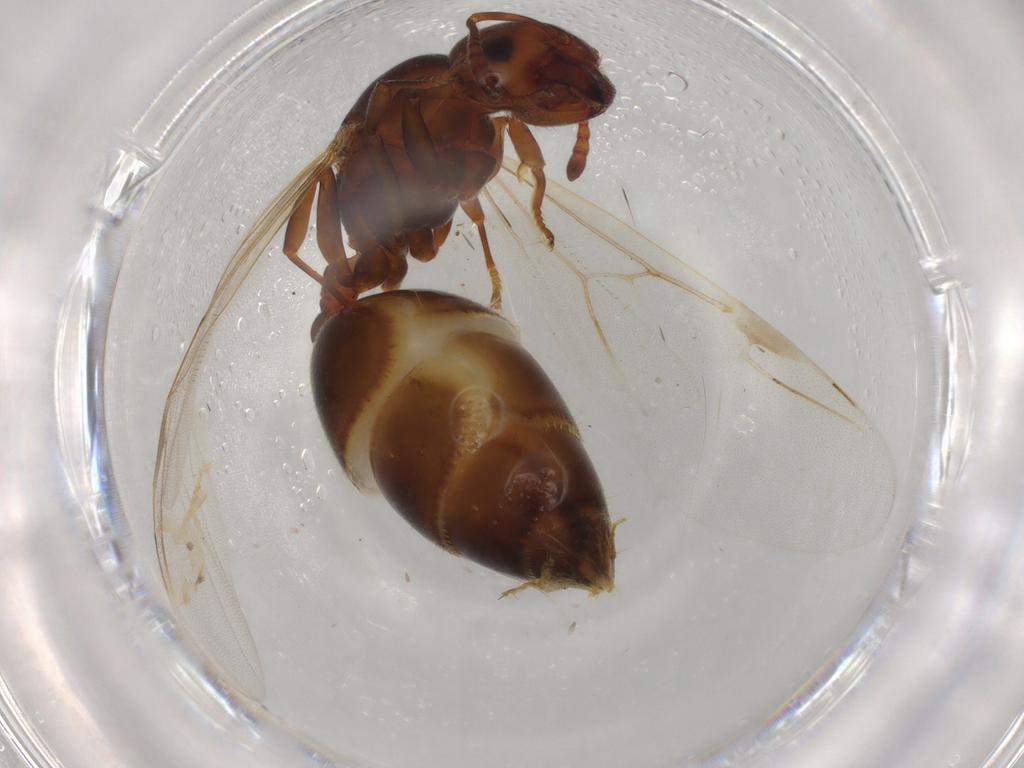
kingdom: Animalia
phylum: Arthropoda
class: Insecta
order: Hymenoptera
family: Formicidae
